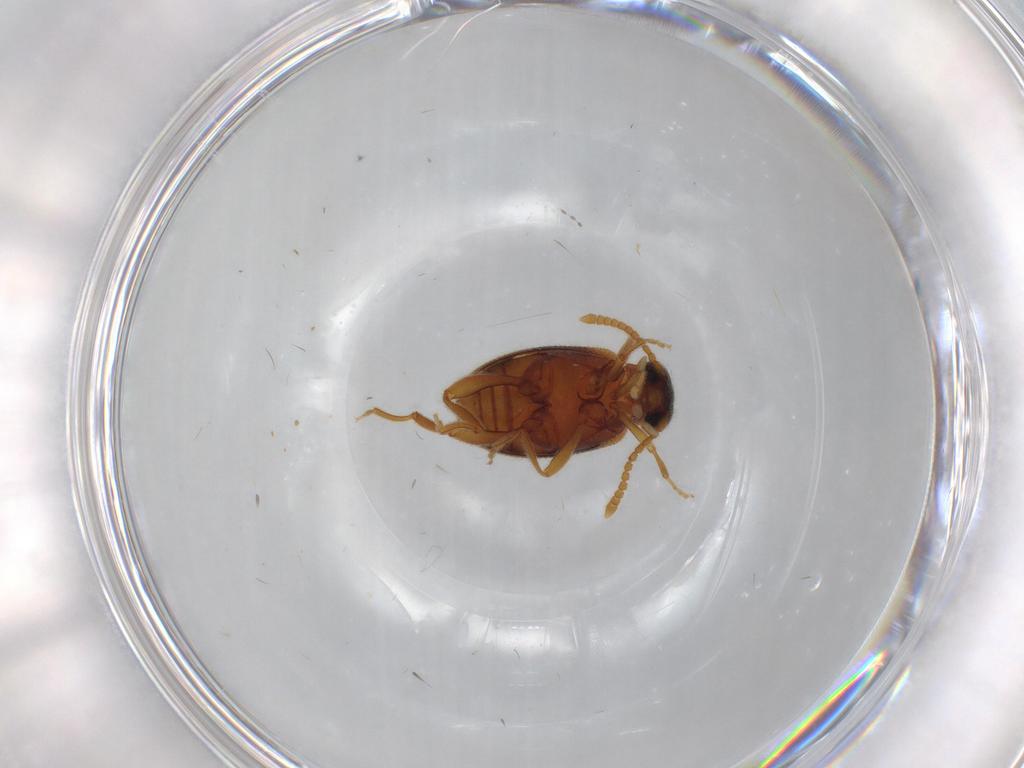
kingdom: Animalia
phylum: Arthropoda
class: Insecta
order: Coleoptera
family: Aderidae
